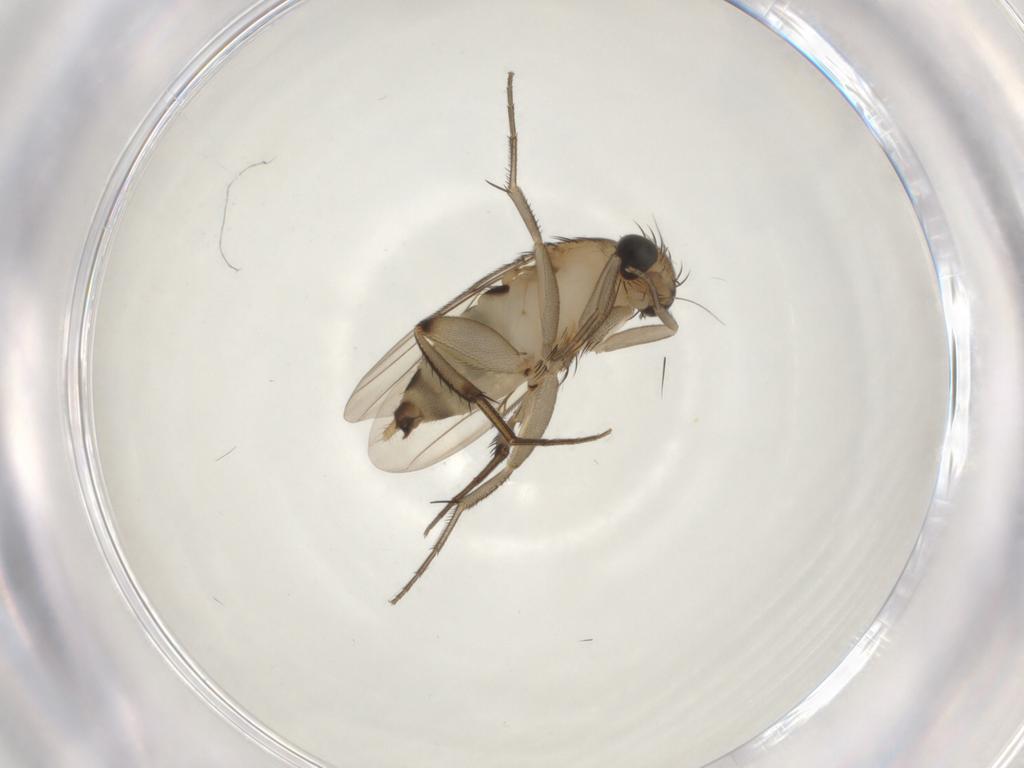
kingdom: Animalia
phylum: Arthropoda
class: Insecta
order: Diptera
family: Phoridae
